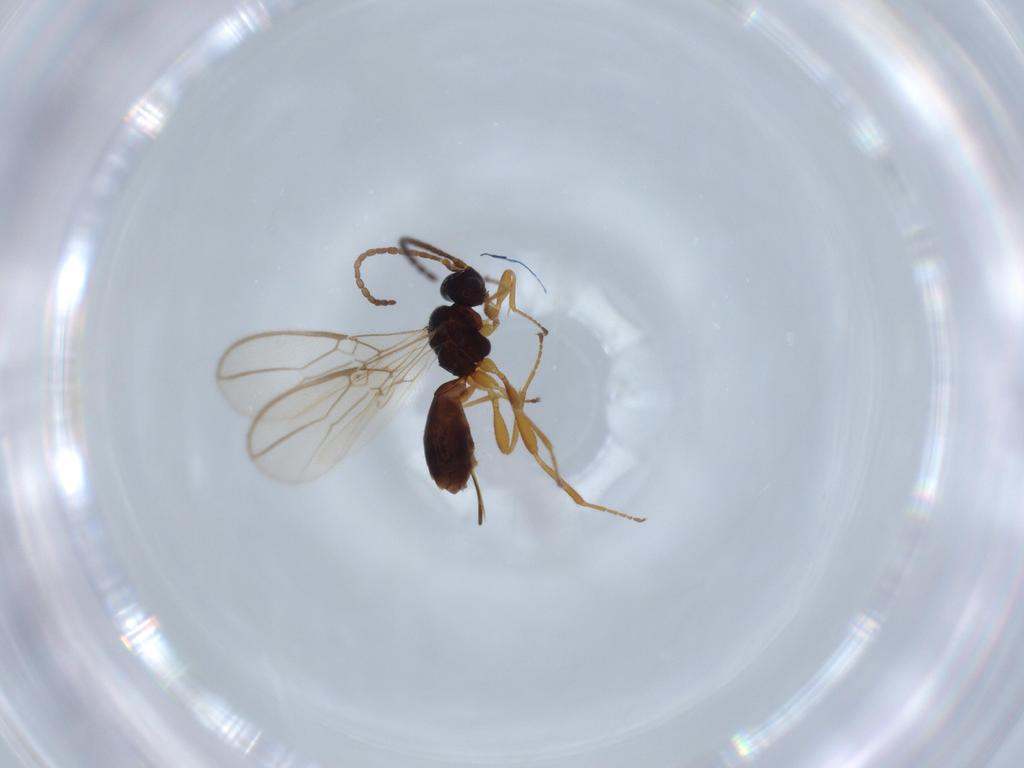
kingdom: Animalia
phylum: Arthropoda
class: Insecta
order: Hymenoptera
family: Braconidae
